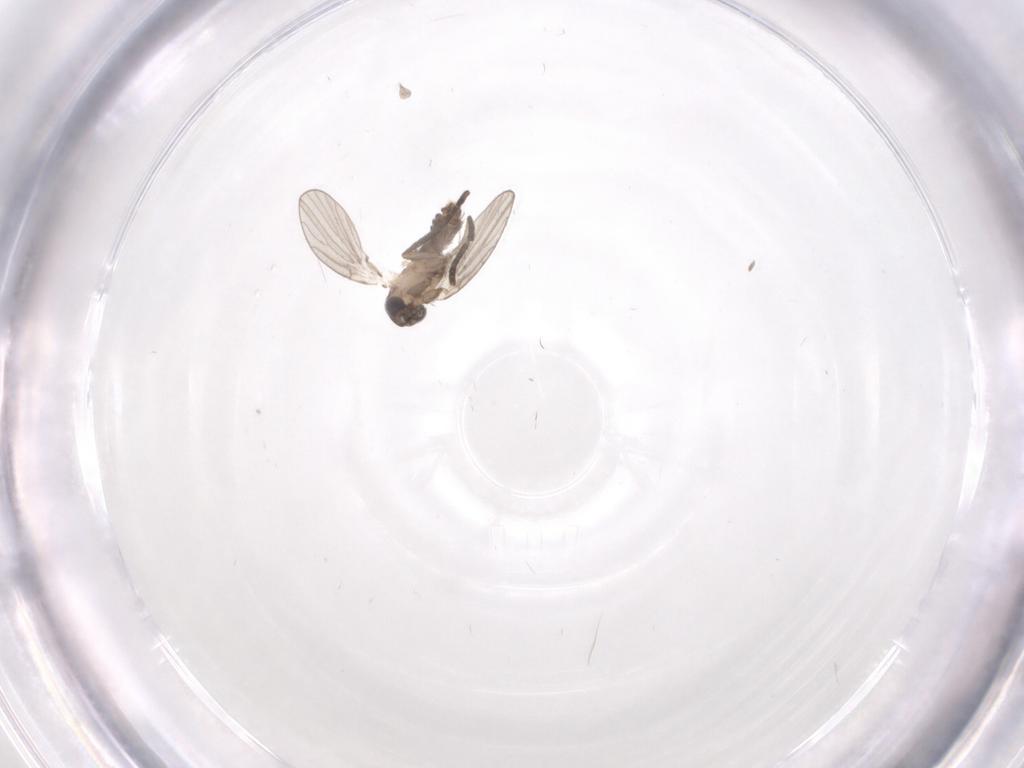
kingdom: Animalia
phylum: Arthropoda
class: Insecta
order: Diptera
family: Psychodidae
